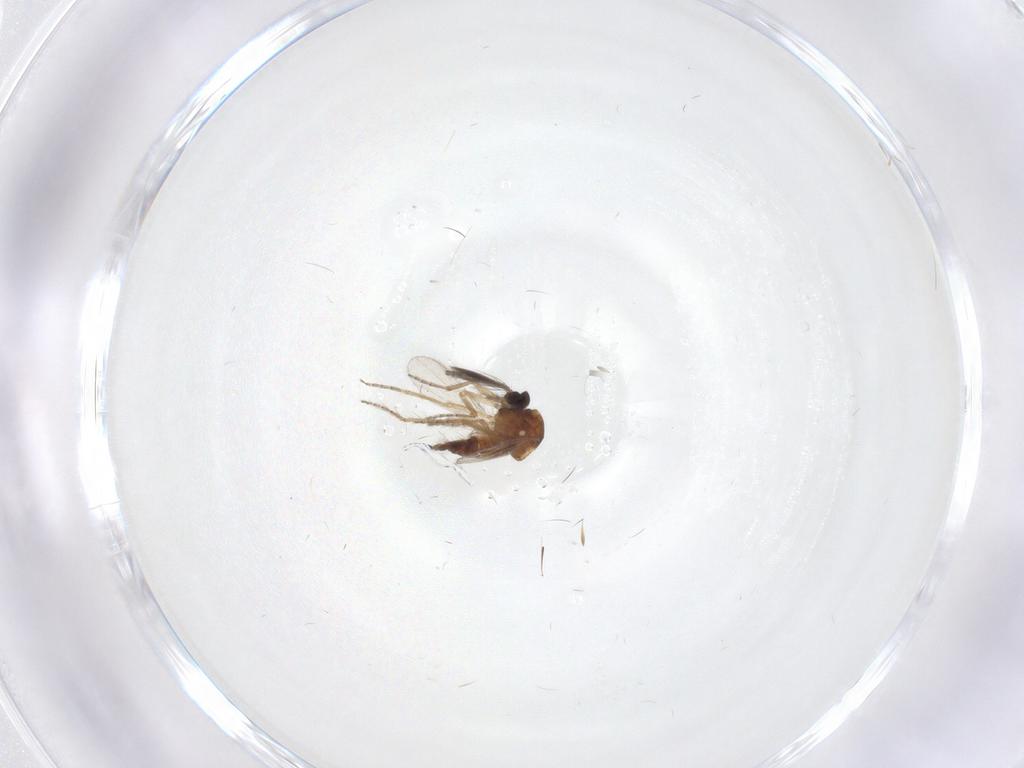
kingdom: Animalia
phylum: Arthropoda
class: Insecta
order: Diptera
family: Ceratopogonidae
